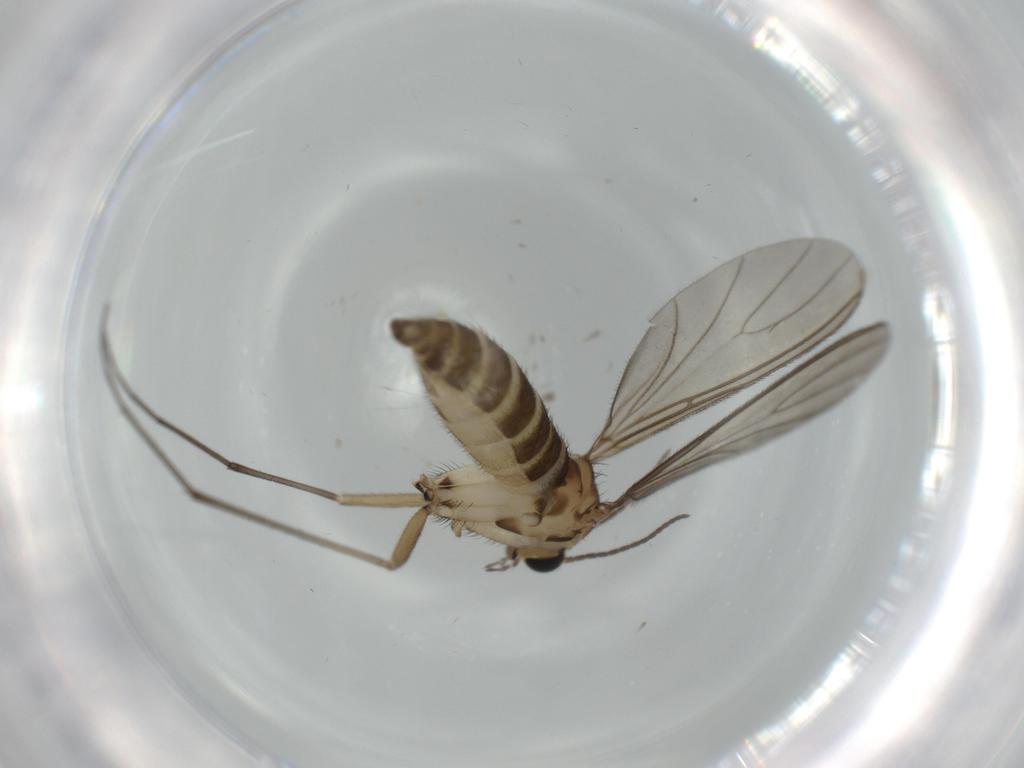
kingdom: Animalia
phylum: Arthropoda
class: Insecta
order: Diptera
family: Sciaridae
